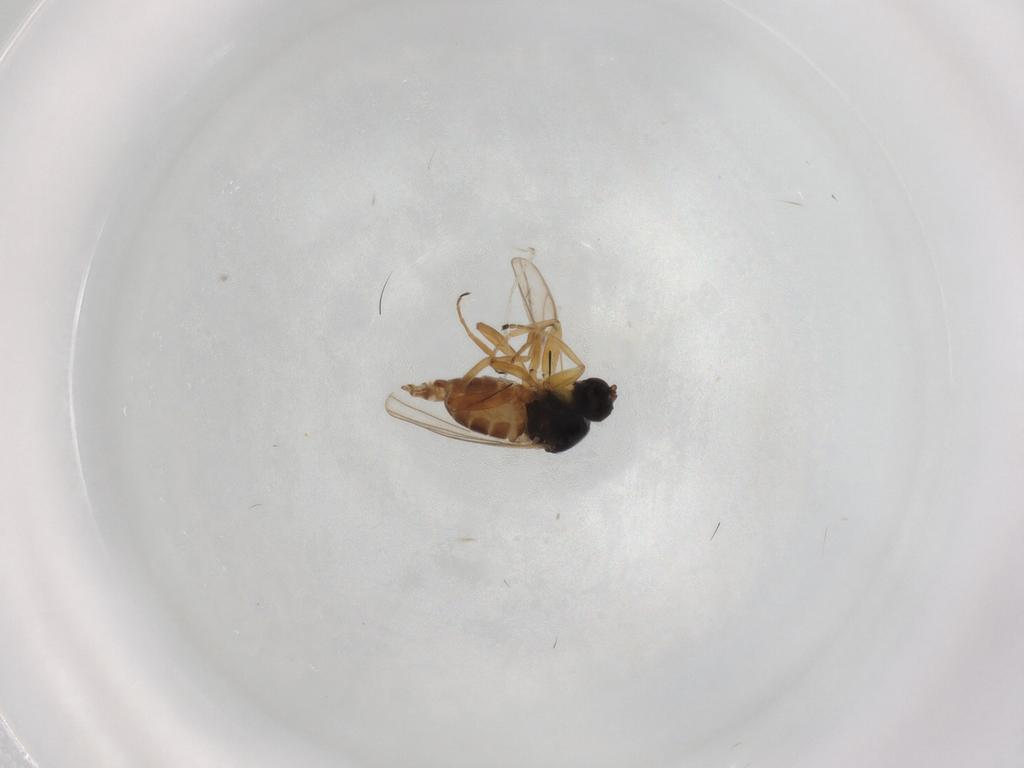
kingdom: Animalia
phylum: Arthropoda
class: Insecta
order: Diptera
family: Hybotidae
